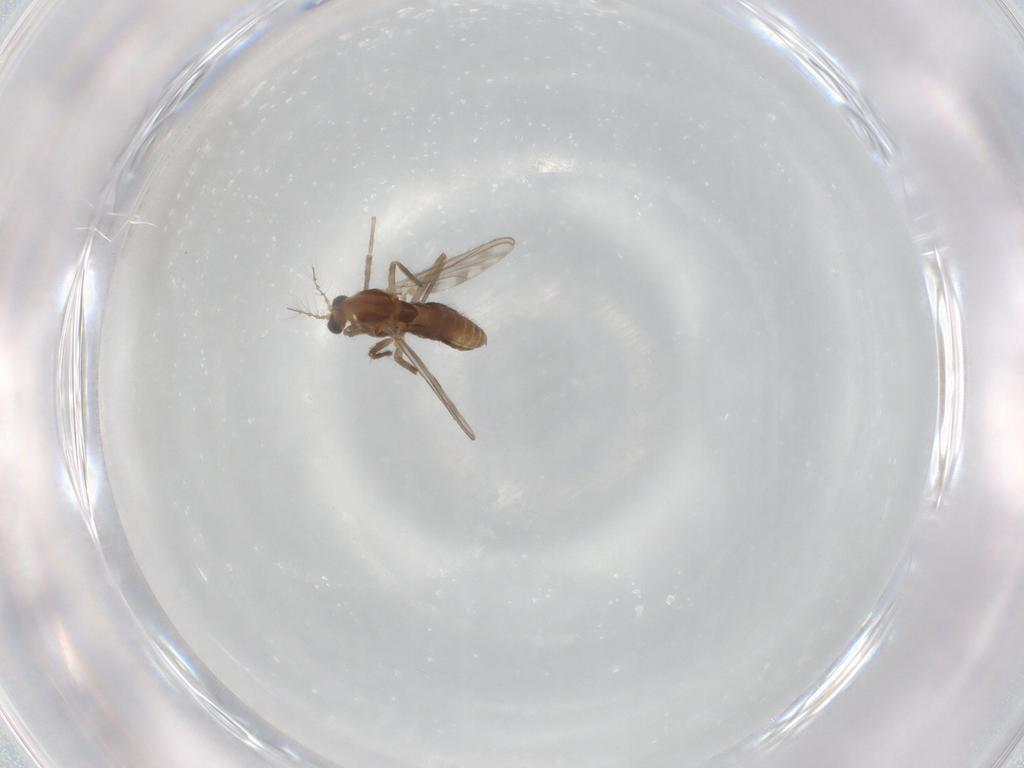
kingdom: Animalia
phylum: Arthropoda
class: Insecta
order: Diptera
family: Chironomidae
